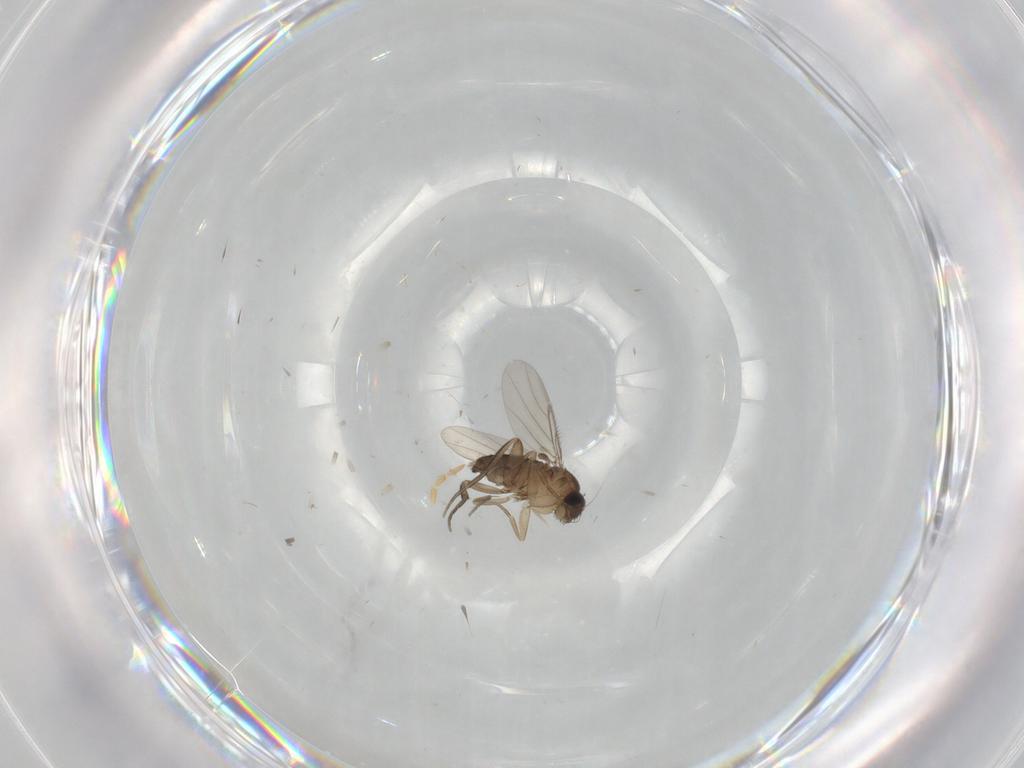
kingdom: Animalia
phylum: Arthropoda
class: Insecta
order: Diptera
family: Phoridae
